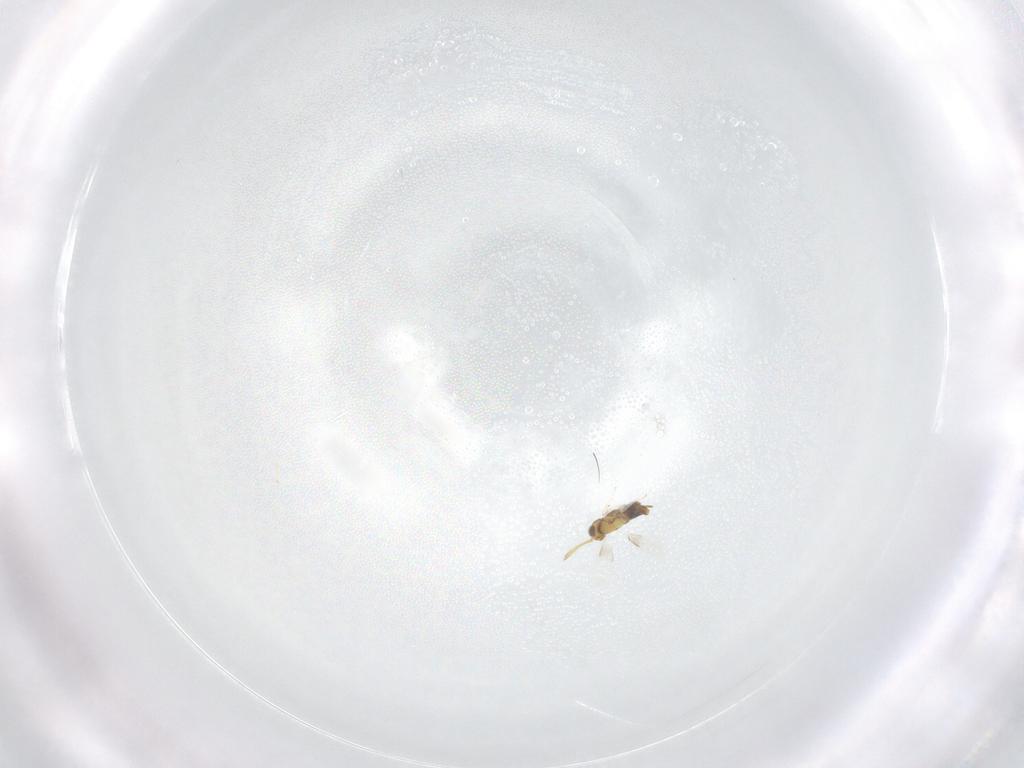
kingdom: Animalia
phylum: Arthropoda
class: Insecta
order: Hymenoptera
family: Aphelinidae
